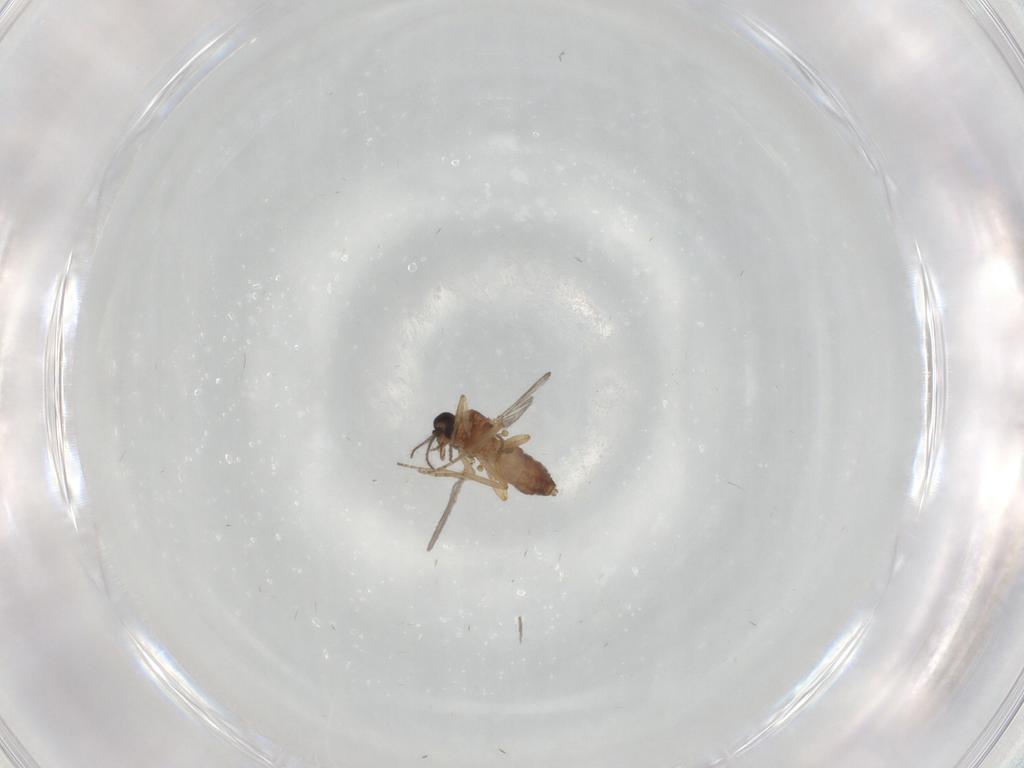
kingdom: Animalia
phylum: Arthropoda
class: Insecta
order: Diptera
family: Ceratopogonidae
